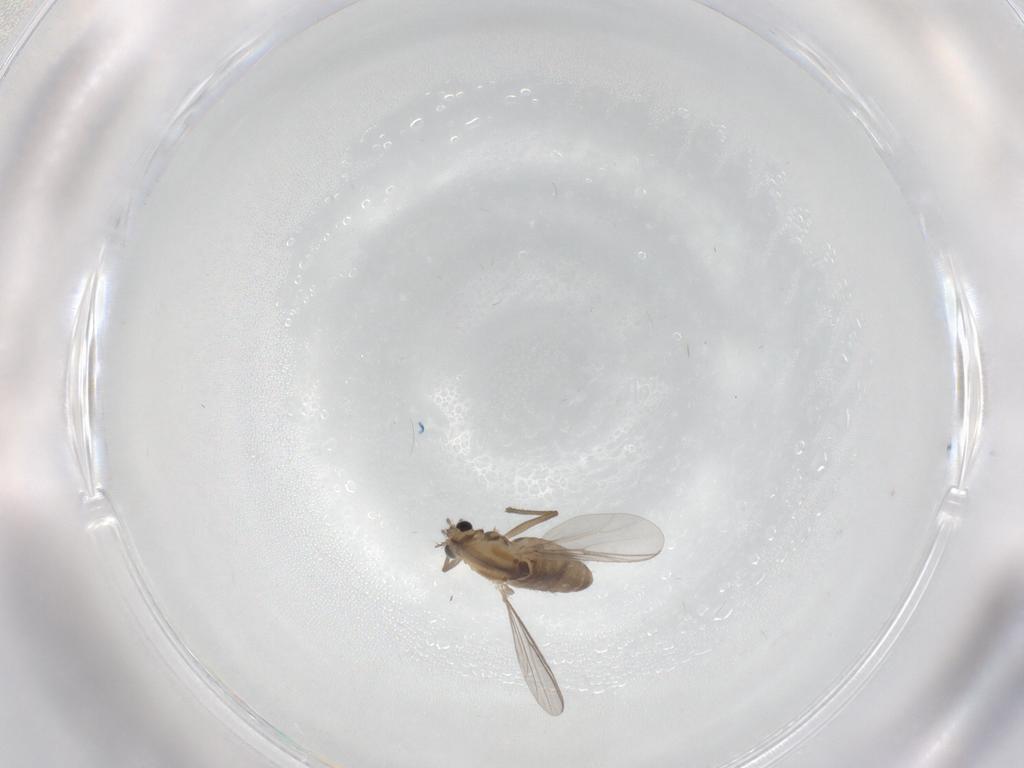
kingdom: Animalia
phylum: Arthropoda
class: Insecta
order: Diptera
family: Chironomidae
